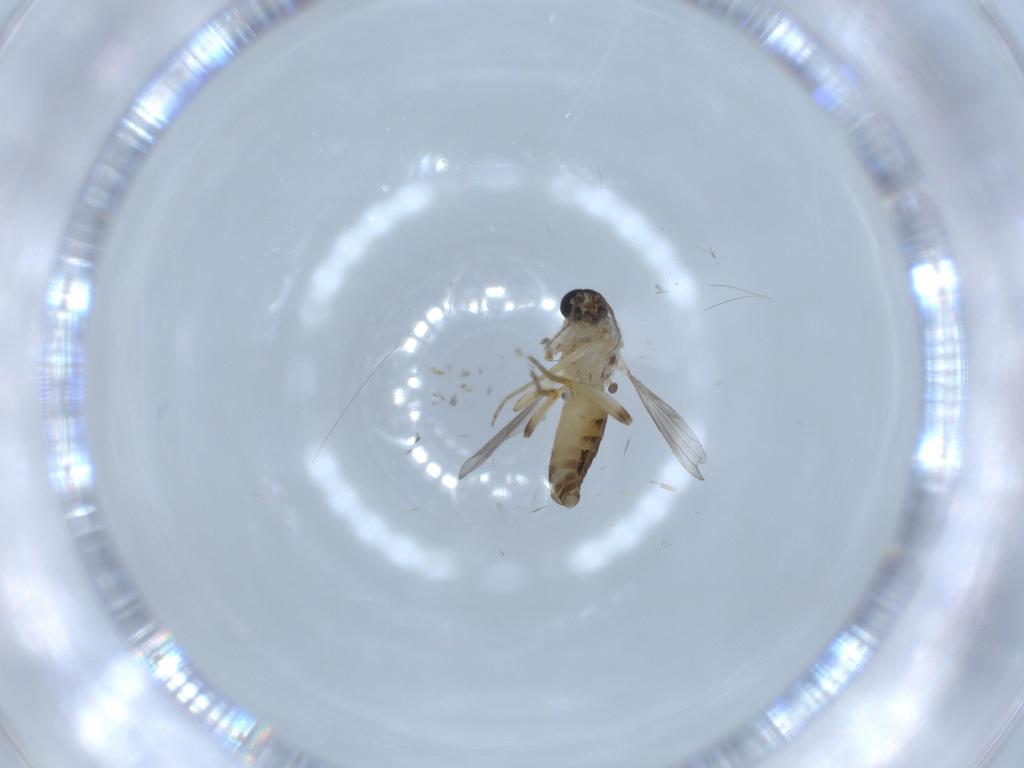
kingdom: Animalia
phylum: Arthropoda
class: Insecta
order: Diptera
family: Ceratopogonidae
